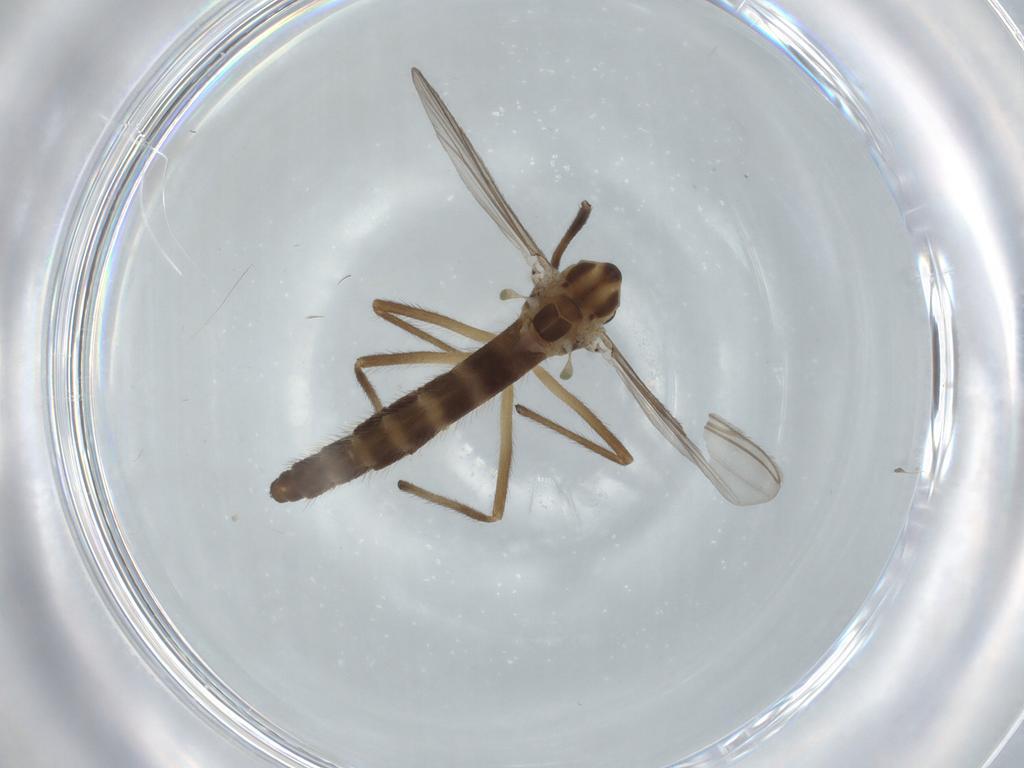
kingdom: Animalia
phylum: Arthropoda
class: Insecta
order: Diptera
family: Chironomidae
